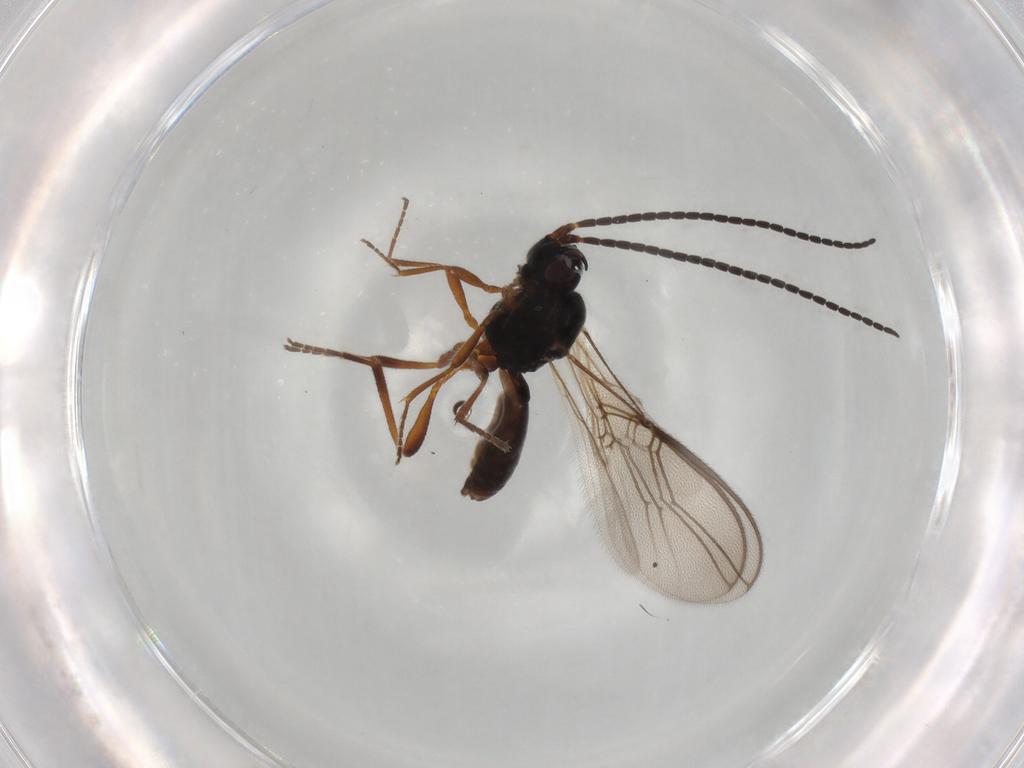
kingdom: Animalia
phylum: Arthropoda
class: Insecta
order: Hymenoptera
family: Braconidae
